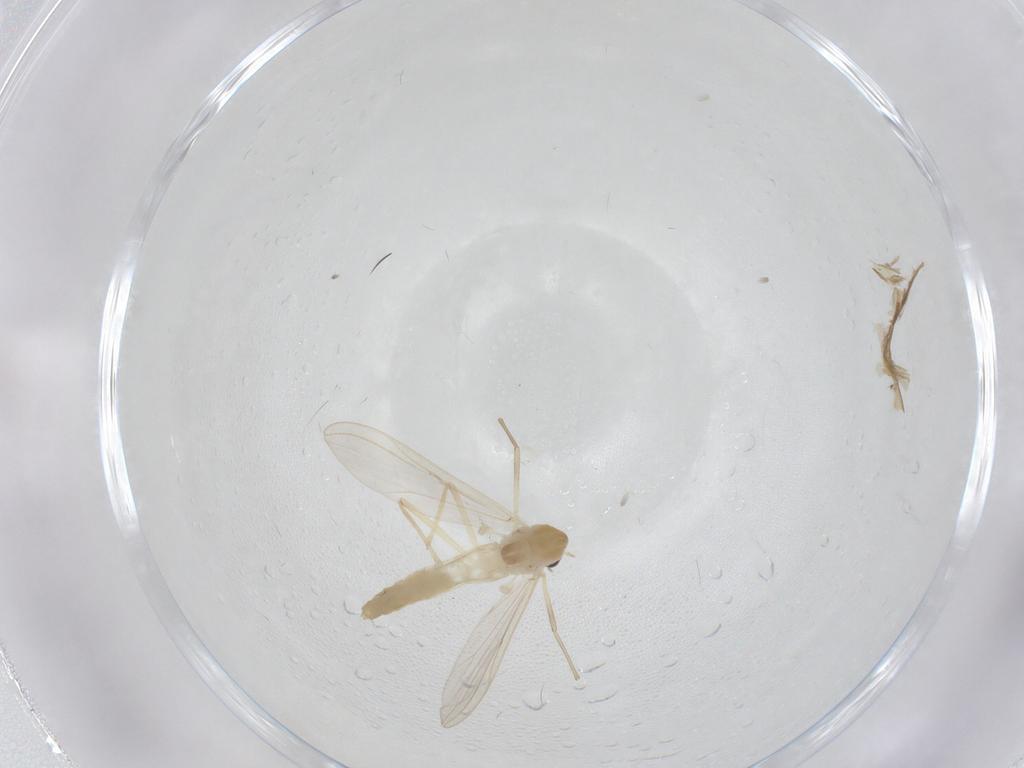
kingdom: Animalia
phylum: Arthropoda
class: Insecta
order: Diptera
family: Chironomidae
